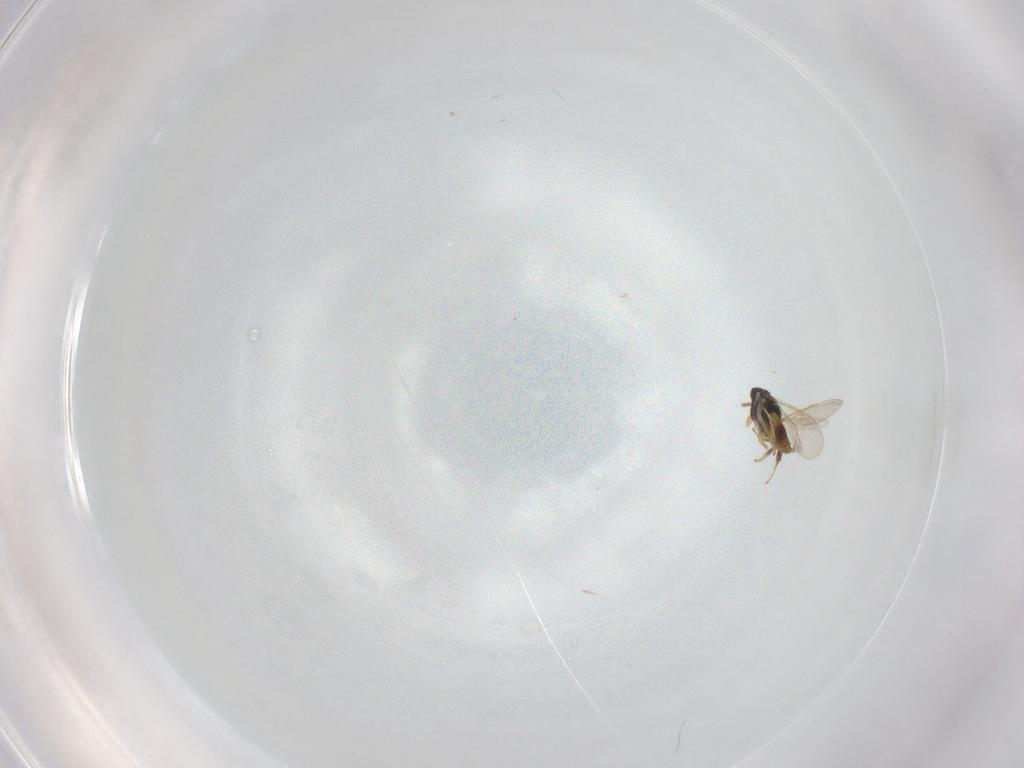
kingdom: Animalia
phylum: Arthropoda
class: Insecta
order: Hymenoptera
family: Aphelinidae
